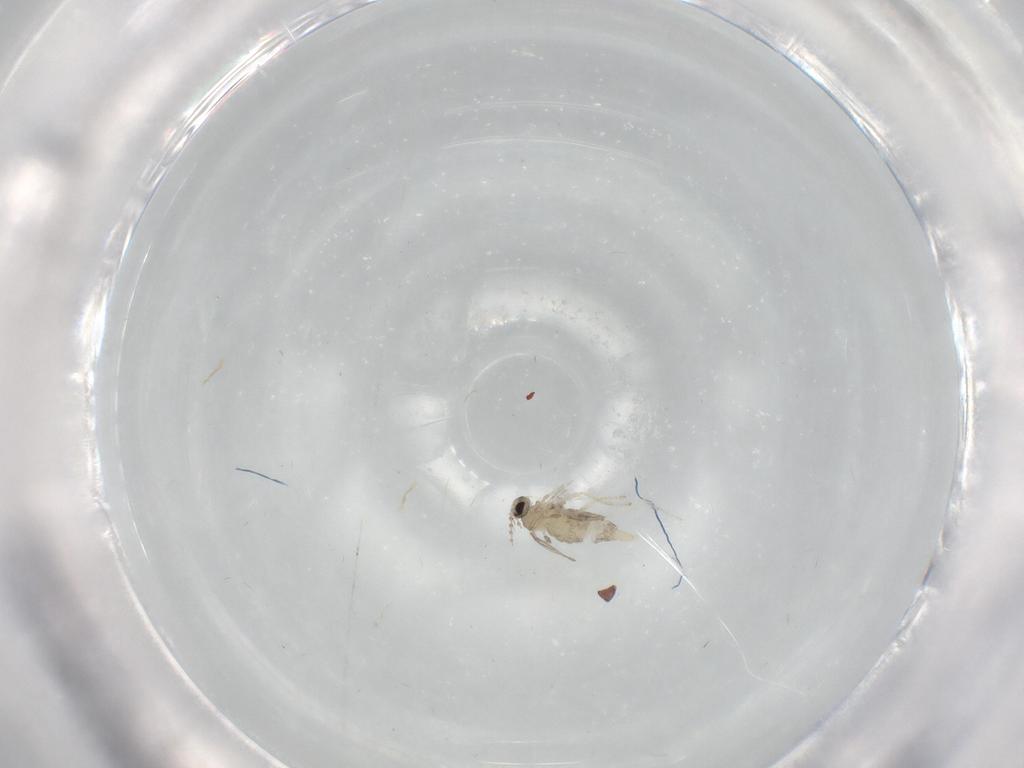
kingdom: Animalia
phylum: Arthropoda
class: Insecta
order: Diptera
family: Cecidomyiidae
